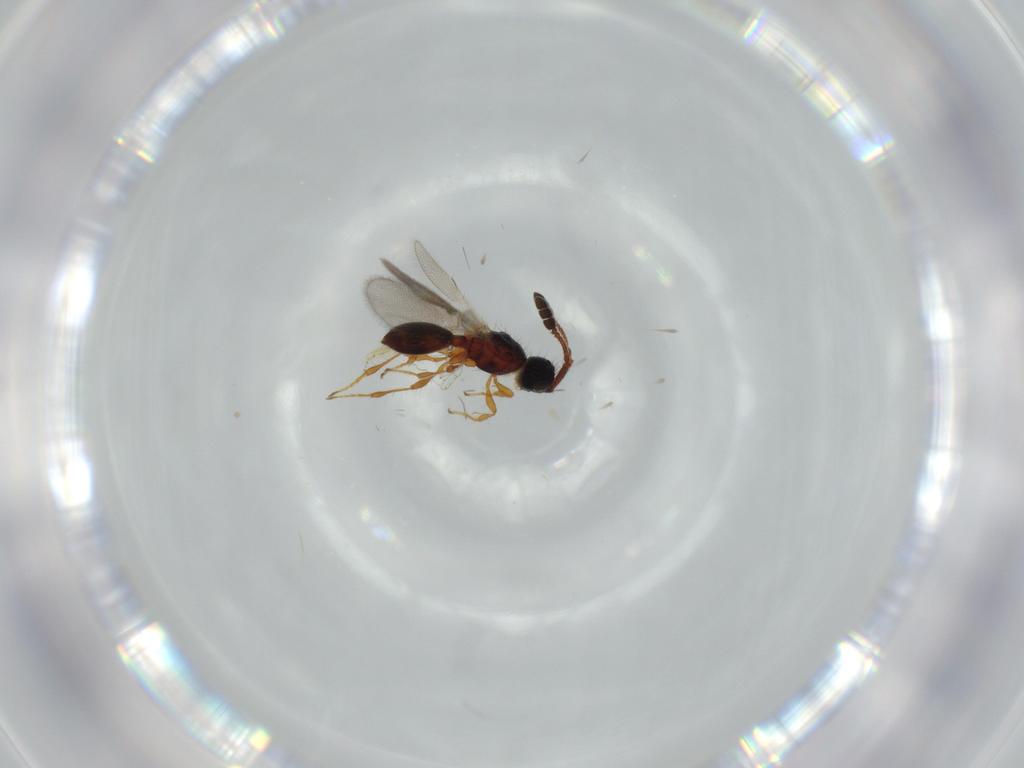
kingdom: Animalia
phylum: Arthropoda
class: Insecta
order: Hymenoptera
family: Diapriidae
